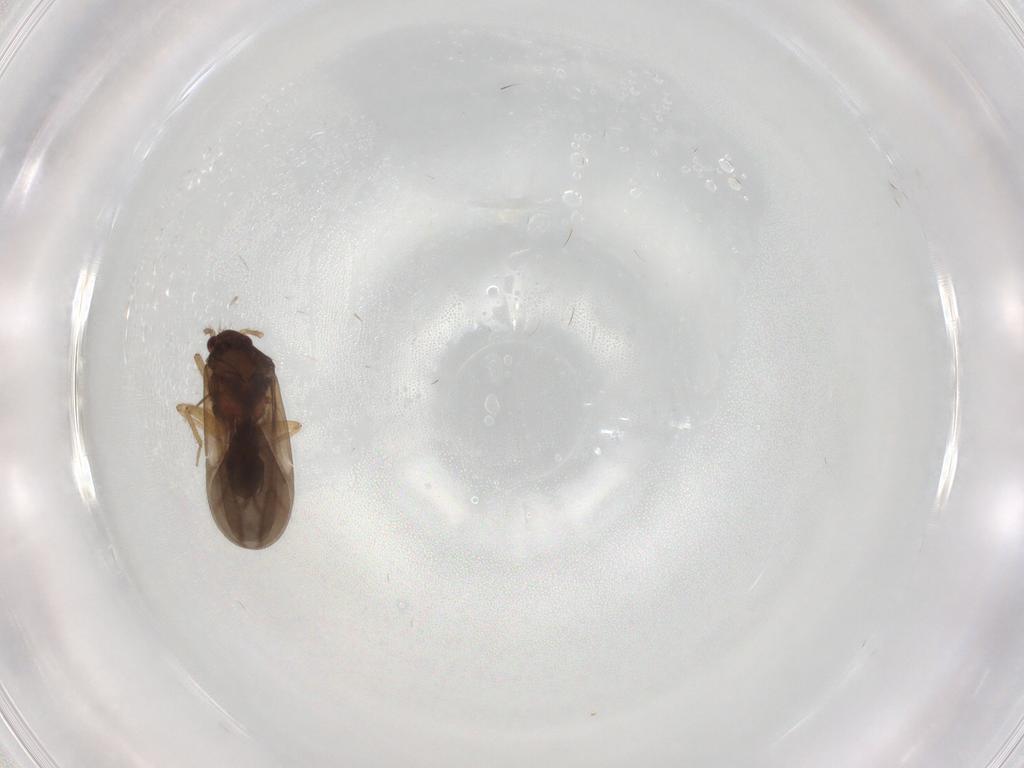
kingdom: Animalia
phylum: Arthropoda
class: Insecta
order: Hemiptera
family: Ceratocombidae
